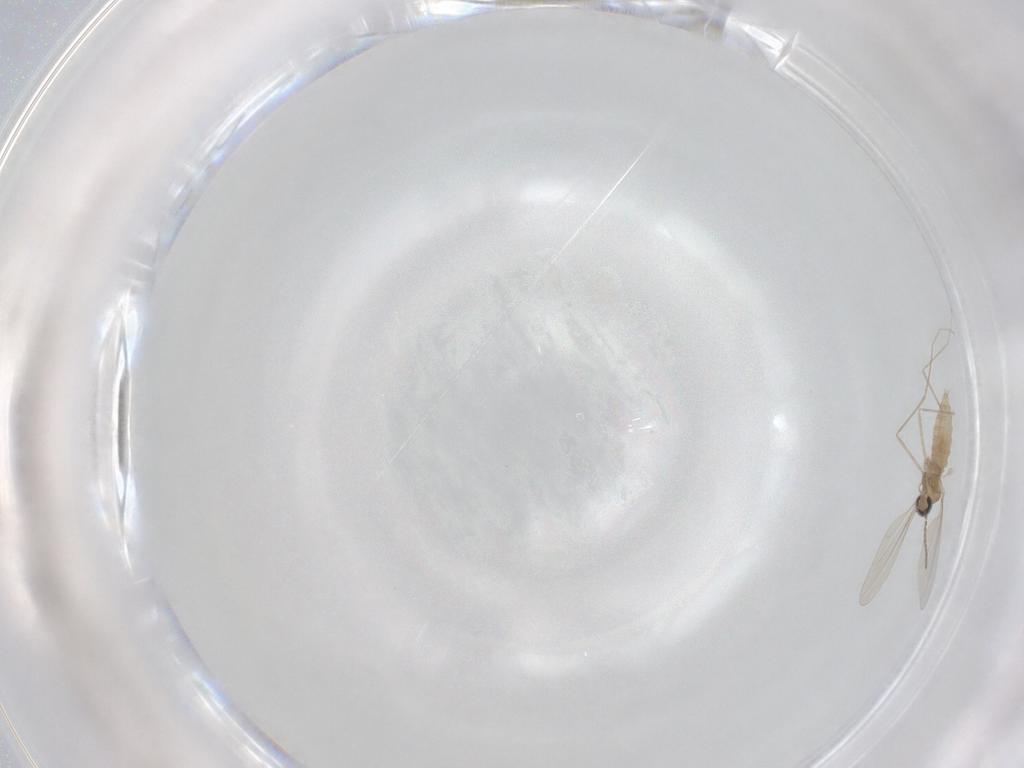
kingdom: Animalia
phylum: Arthropoda
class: Insecta
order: Diptera
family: Cecidomyiidae
